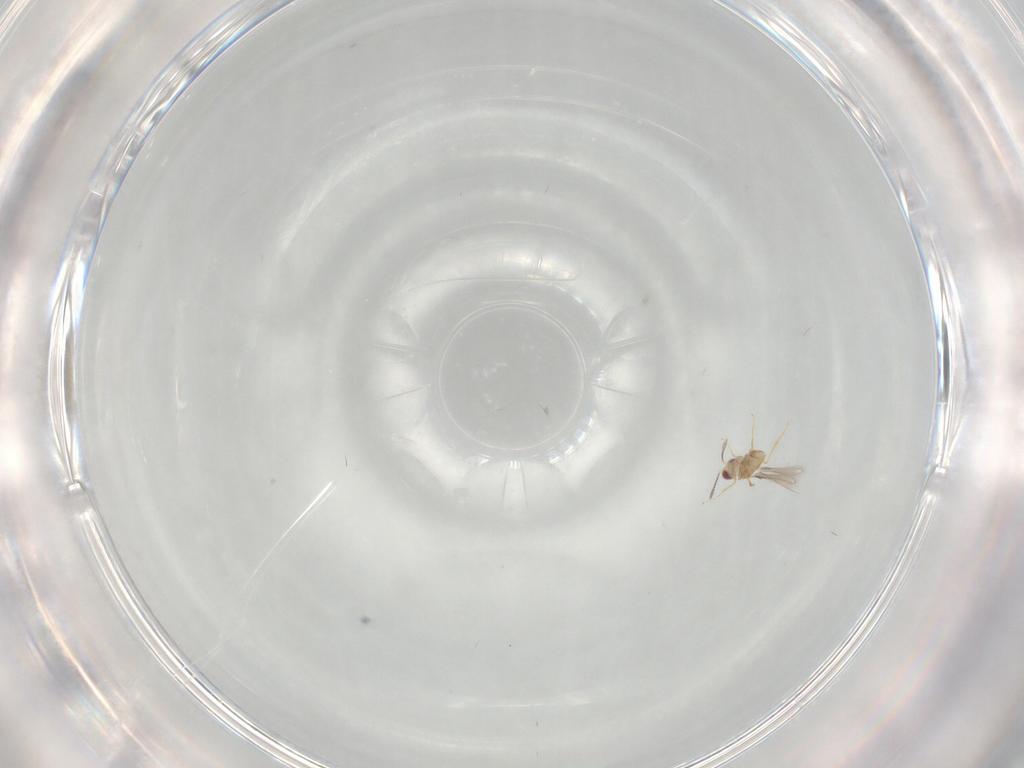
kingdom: Animalia
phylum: Arthropoda
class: Insecta
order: Hymenoptera
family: Mymaridae
